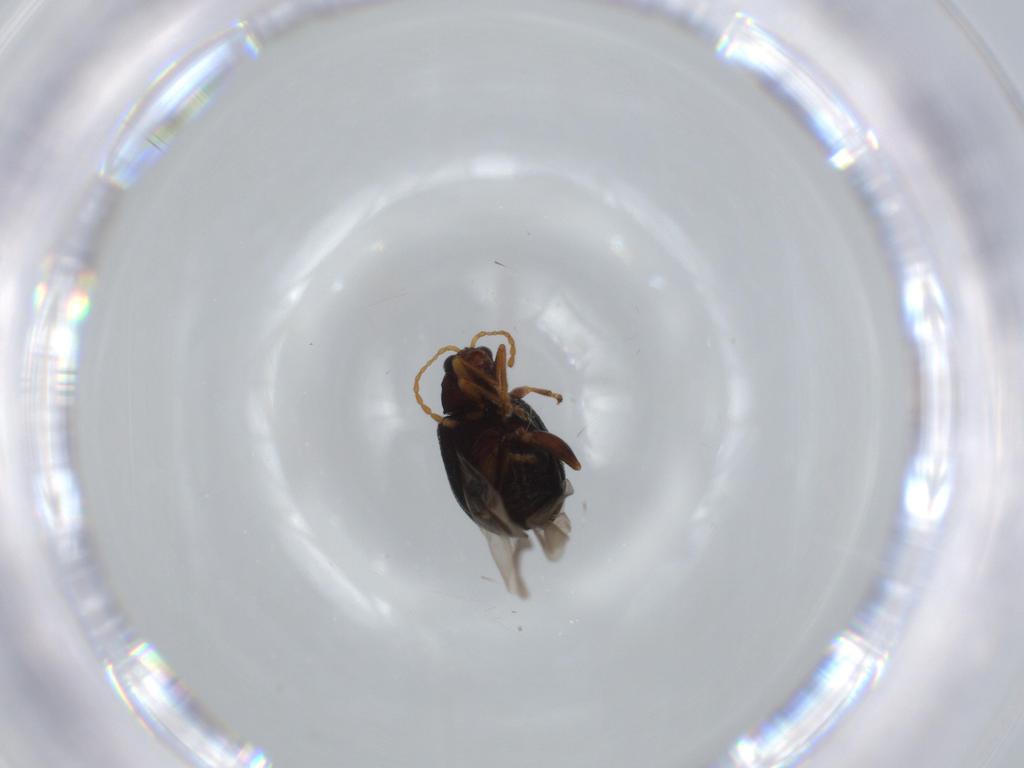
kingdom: Animalia
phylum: Arthropoda
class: Insecta
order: Coleoptera
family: Chrysomelidae
